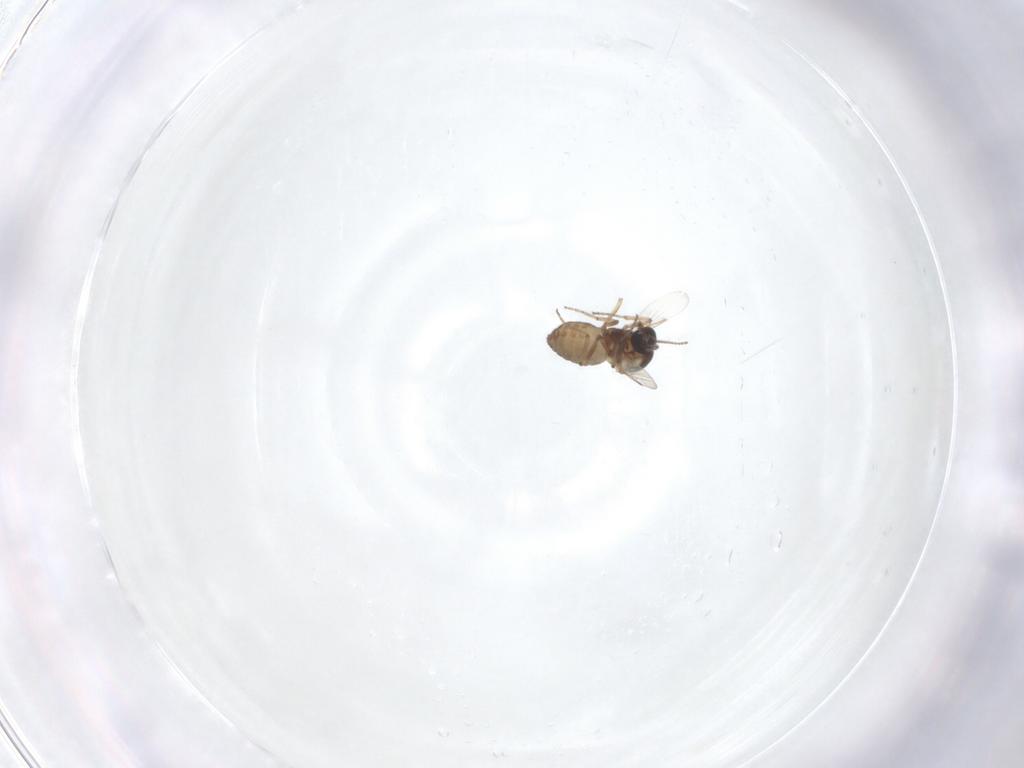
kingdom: Animalia
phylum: Arthropoda
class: Insecta
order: Diptera
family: Ceratopogonidae
